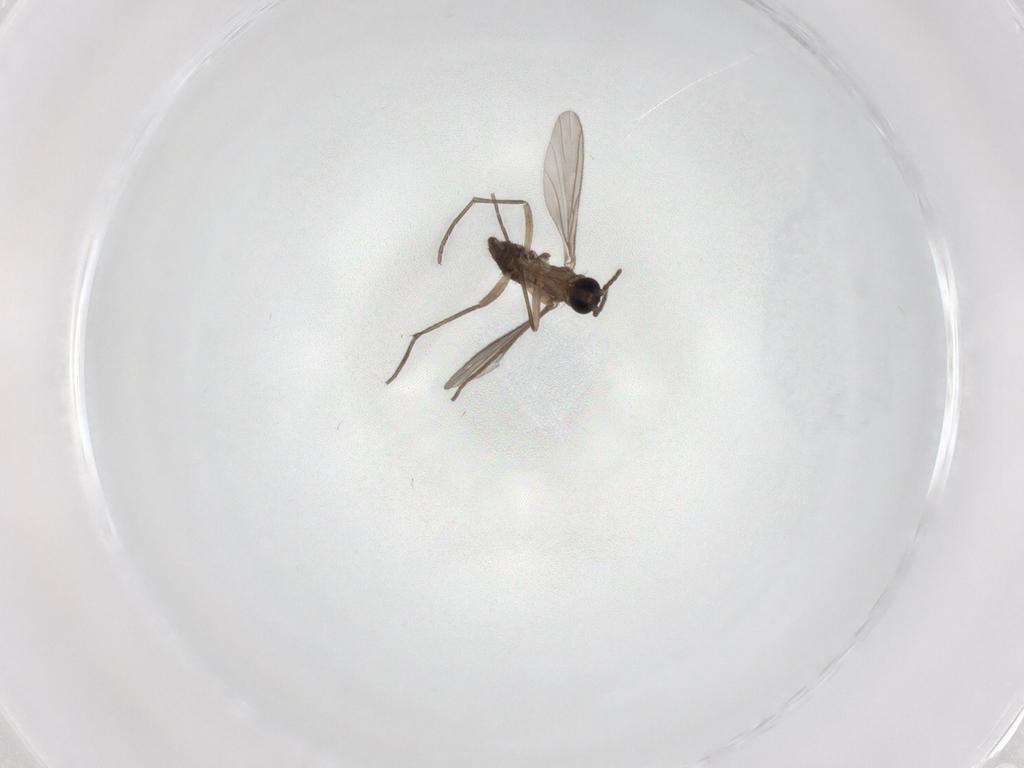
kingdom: Animalia
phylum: Arthropoda
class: Insecta
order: Diptera
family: Sciaridae
